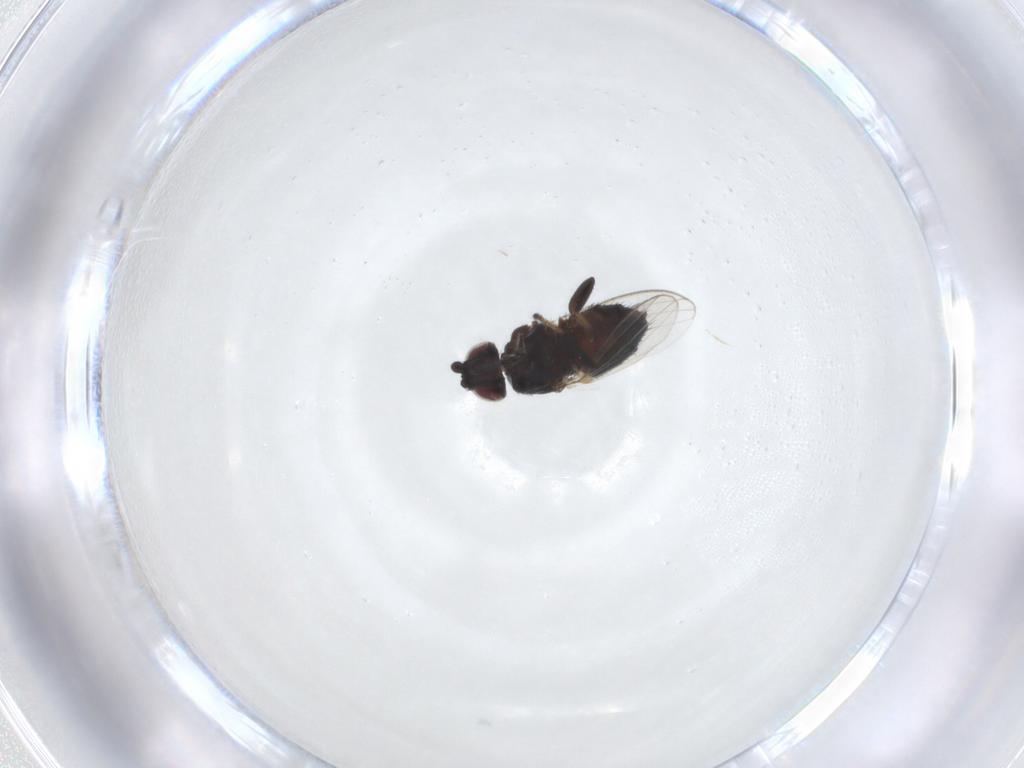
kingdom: Animalia
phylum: Arthropoda
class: Insecta
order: Diptera
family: Milichiidae
